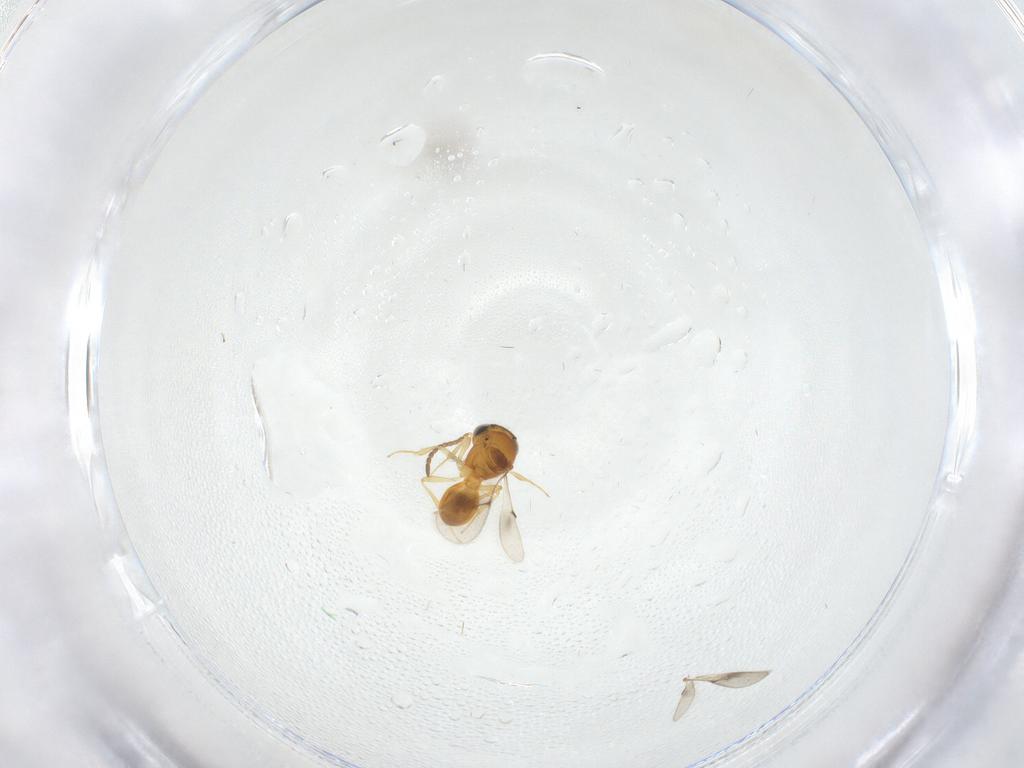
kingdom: Animalia
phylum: Arthropoda
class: Insecta
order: Hymenoptera
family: Scelionidae
